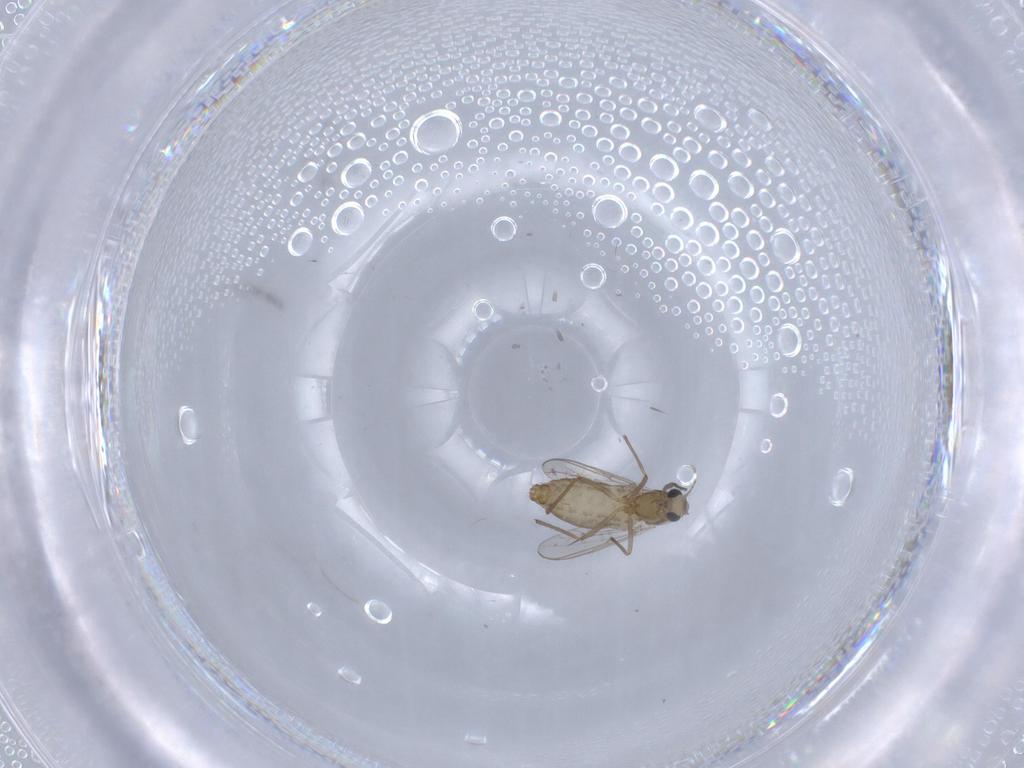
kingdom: Animalia
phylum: Arthropoda
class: Insecta
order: Diptera
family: Chironomidae
